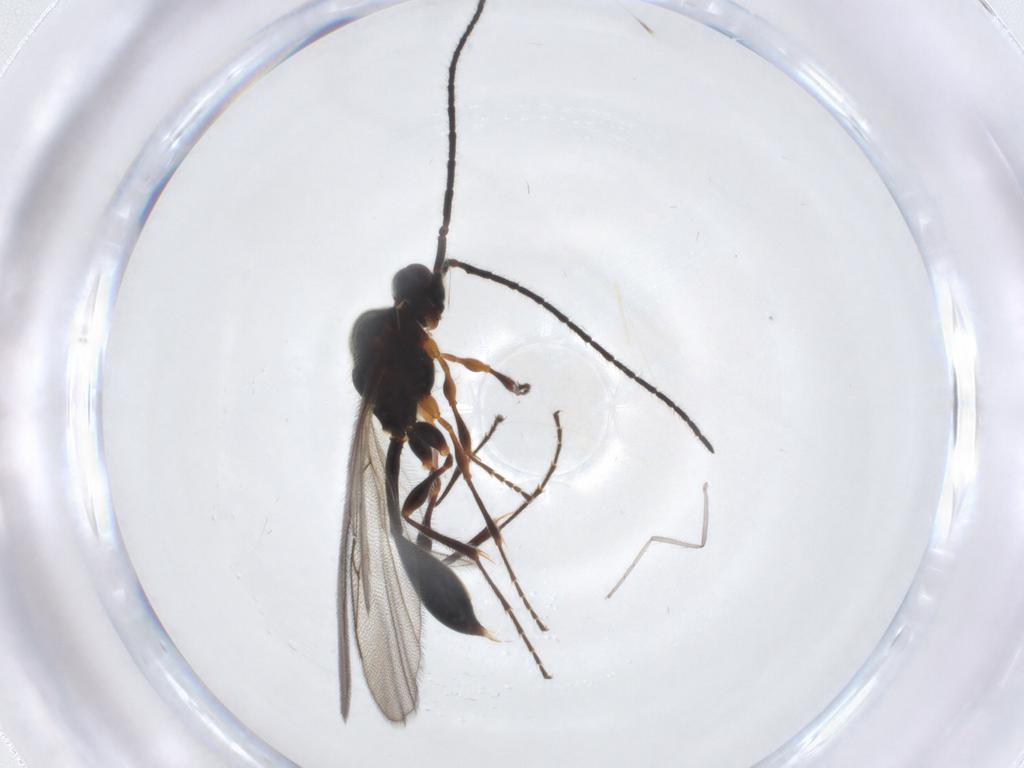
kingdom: Animalia
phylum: Arthropoda
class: Insecta
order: Hymenoptera
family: Diapriidae
